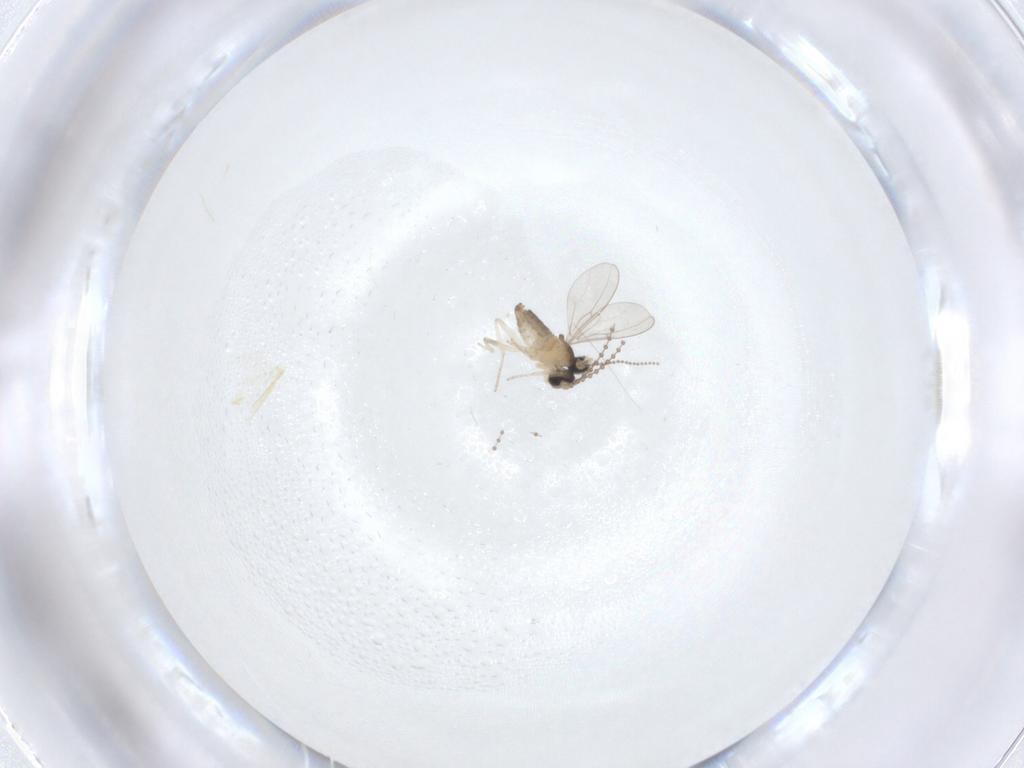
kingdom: Animalia
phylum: Arthropoda
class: Insecta
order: Diptera
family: Cecidomyiidae
